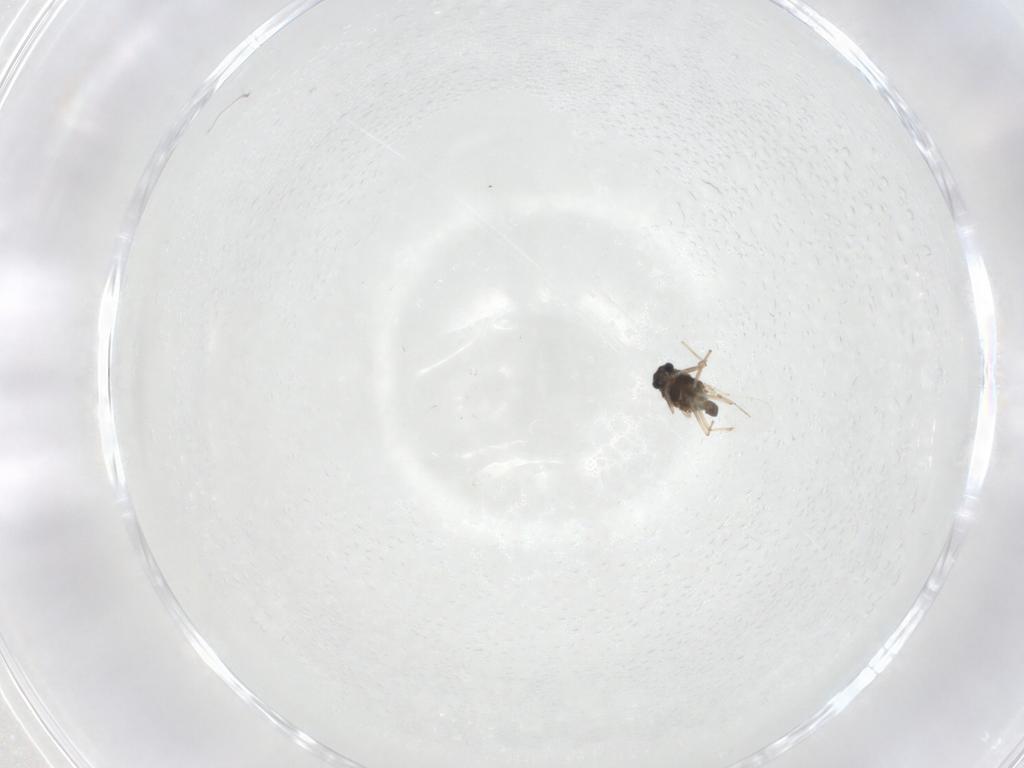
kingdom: Animalia
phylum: Arthropoda
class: Insecta
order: Diptera
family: Chironomidae
